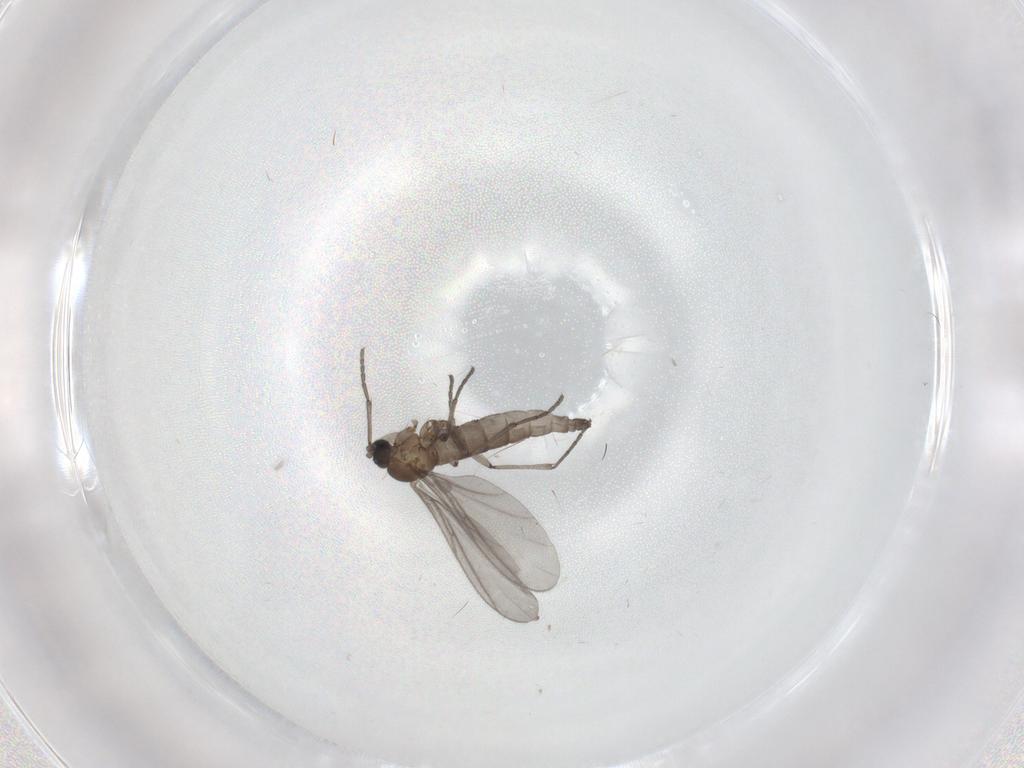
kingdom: Animalia
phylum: Arthropoda
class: Insecta
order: Diptera
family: Sciaridae
